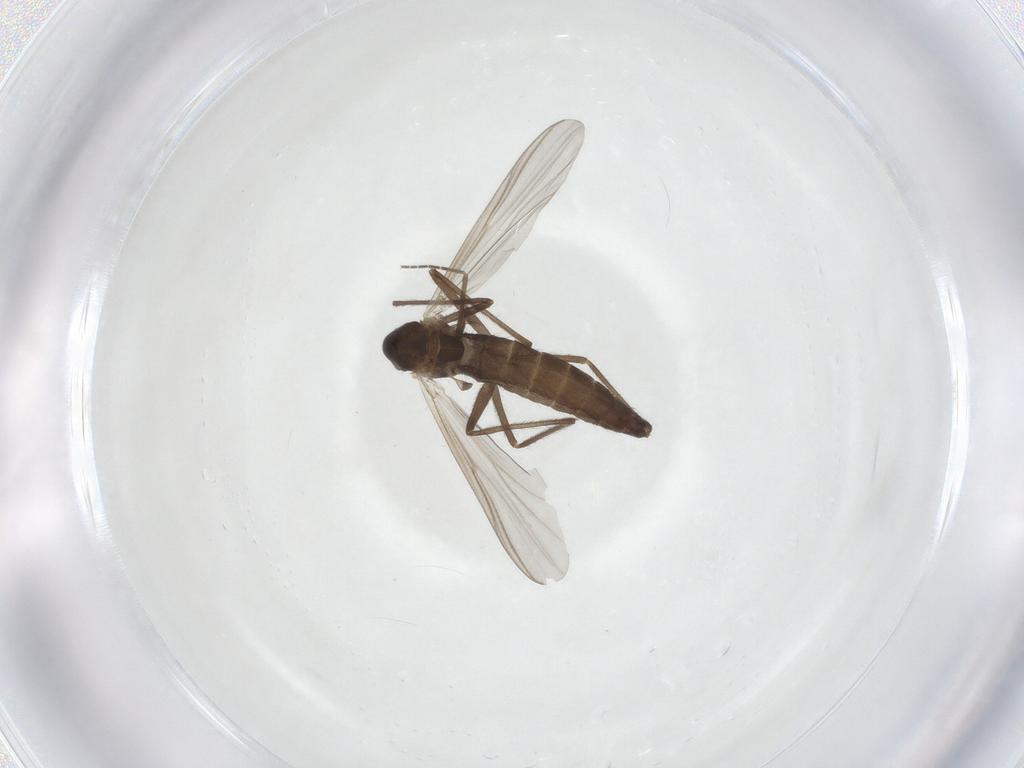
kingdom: Animalia
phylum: Arthropoda
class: Insecta
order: Diptera
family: Chironomidae
